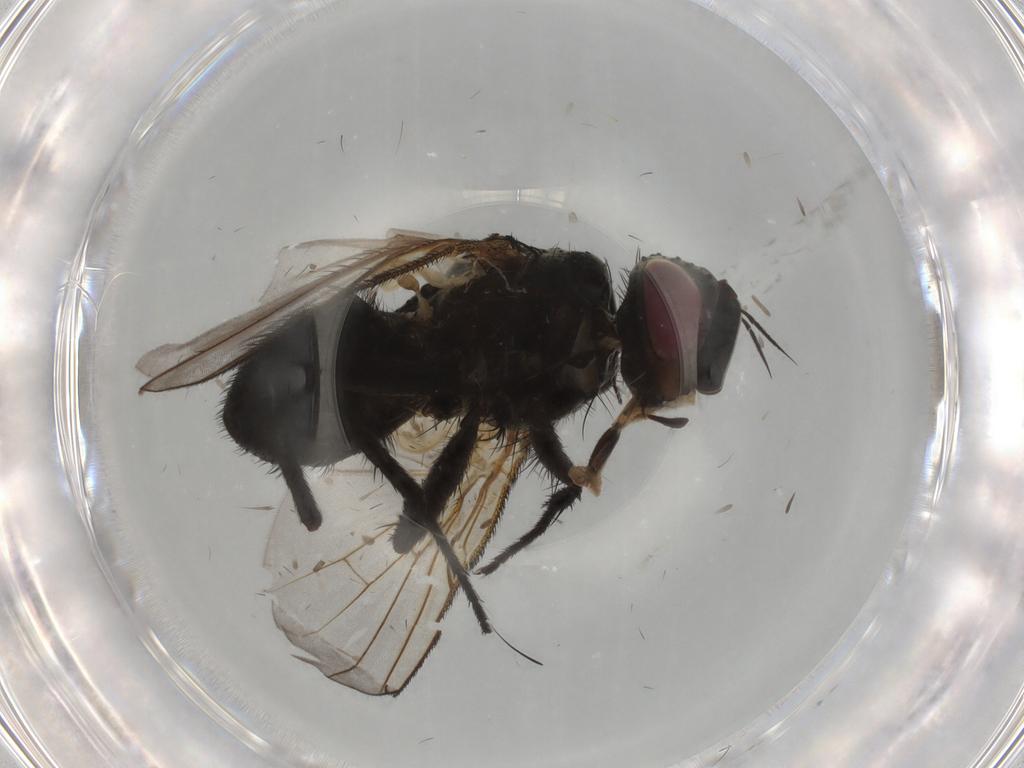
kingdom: Animalia
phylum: Arthropoda
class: Insecta
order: Diptera
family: Tachinidae
